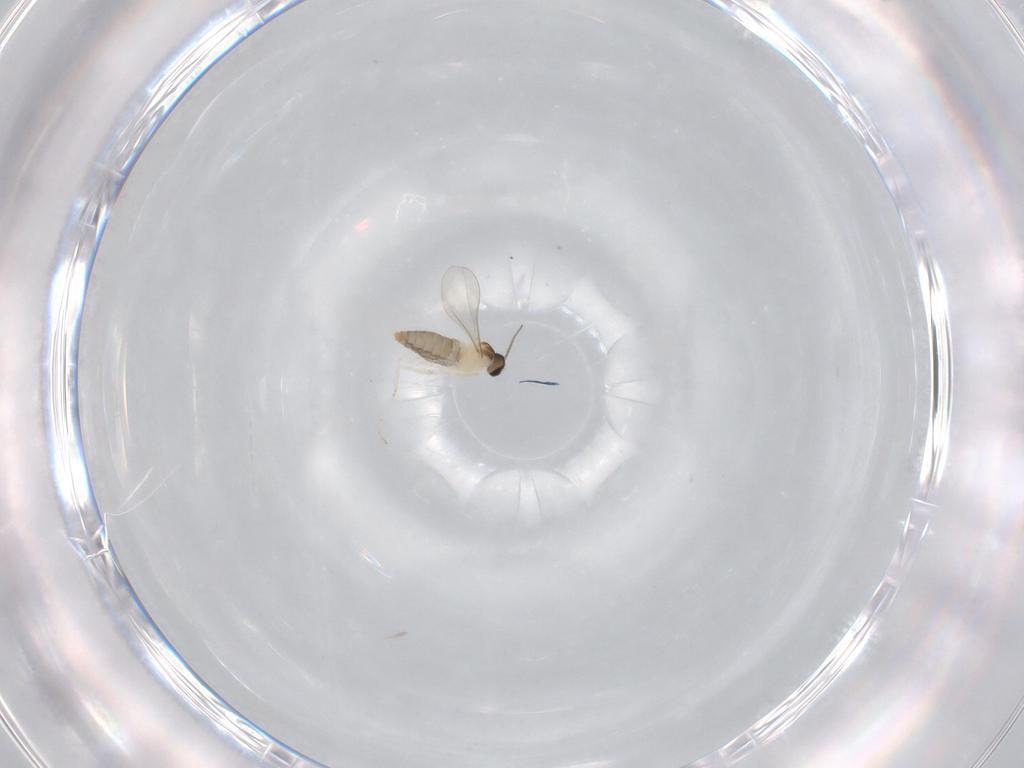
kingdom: Animalia
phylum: Arthropoda
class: Insecta
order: Diptera
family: Cecidomyiidae
